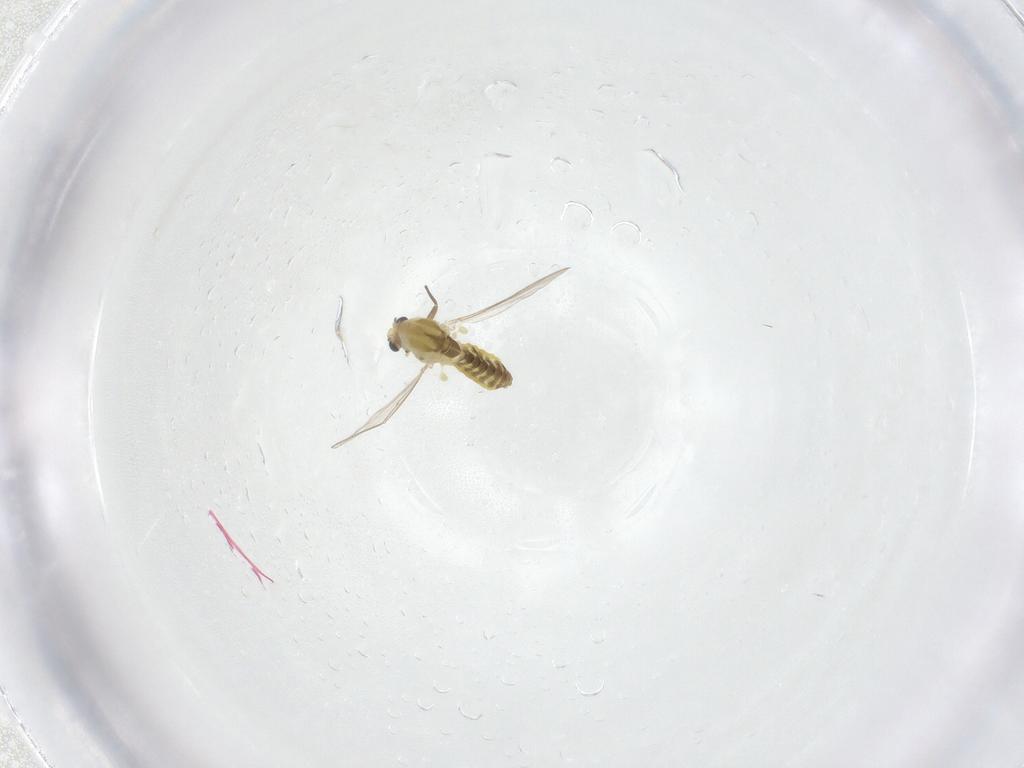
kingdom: Animalia
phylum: Arthropoda
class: Insecta
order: Diptera
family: Chironomidae
